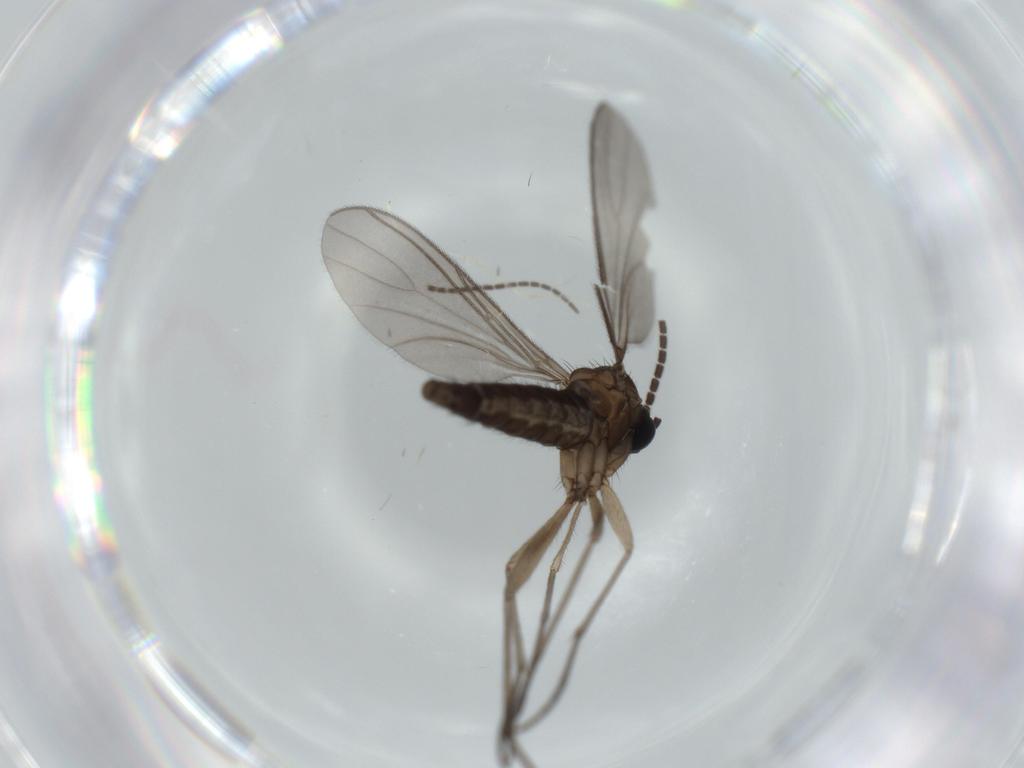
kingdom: Animalia
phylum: Arthropoda
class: Insecta
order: Diptera
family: Sciaridae
